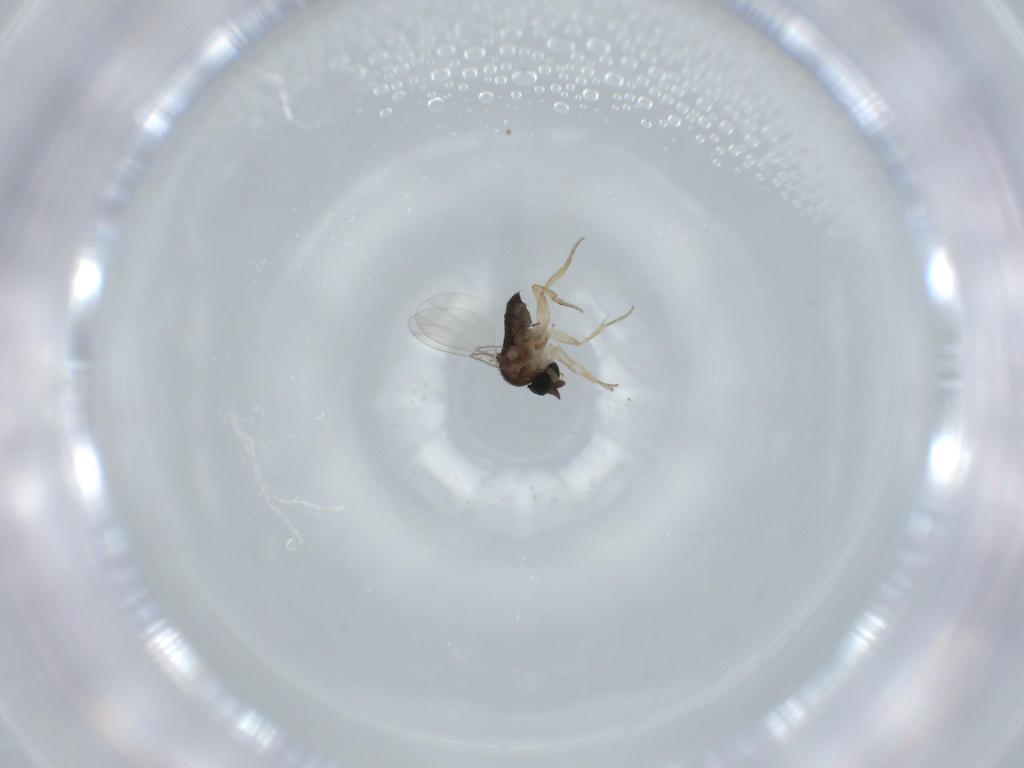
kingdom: Animalia
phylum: Arthropoda
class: Insecta
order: Diptera
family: Phoridae
